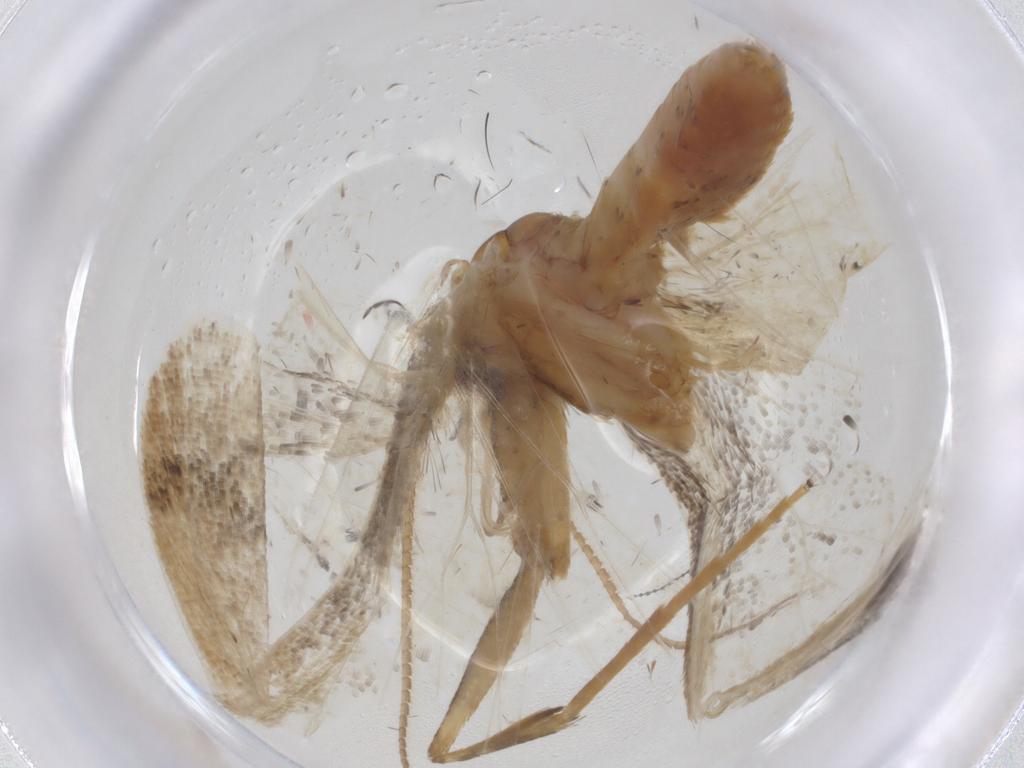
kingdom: Animalia
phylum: Arthropoda
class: Insecta
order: Lepidoptera
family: Geometridae
